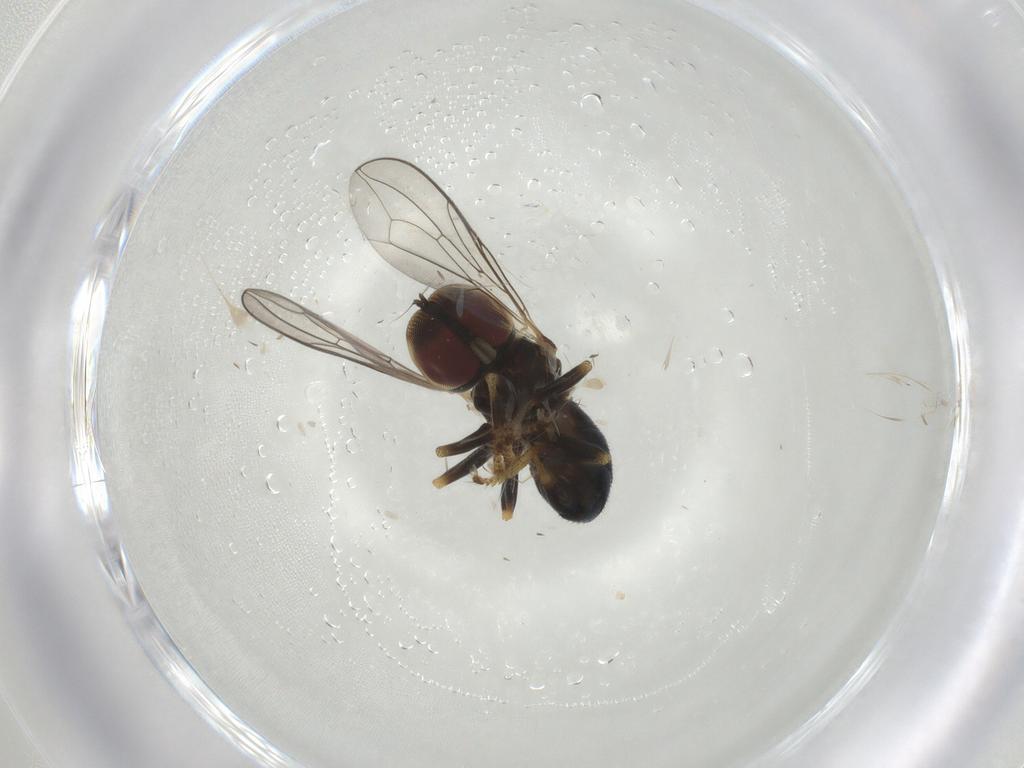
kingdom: Animalia
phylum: Arthropoda
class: Insecta
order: Diptera
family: Pipunculidae
